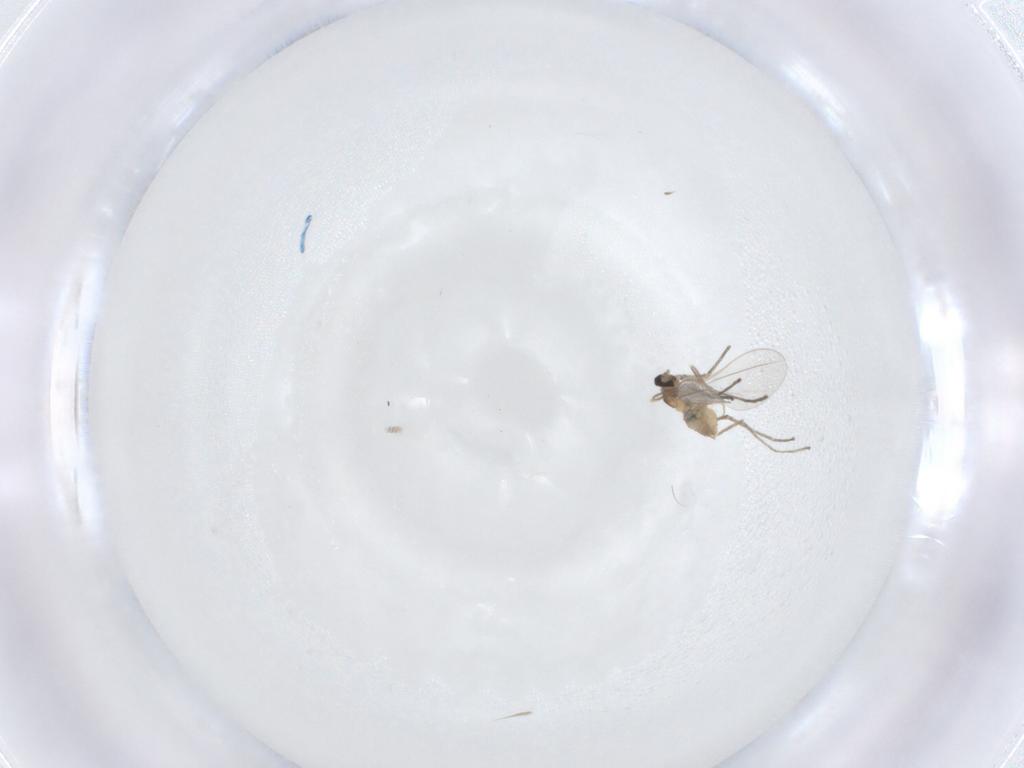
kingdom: Animalia
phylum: Arthropoda
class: Insecta
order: Diptera
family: Cecidomyiidae
